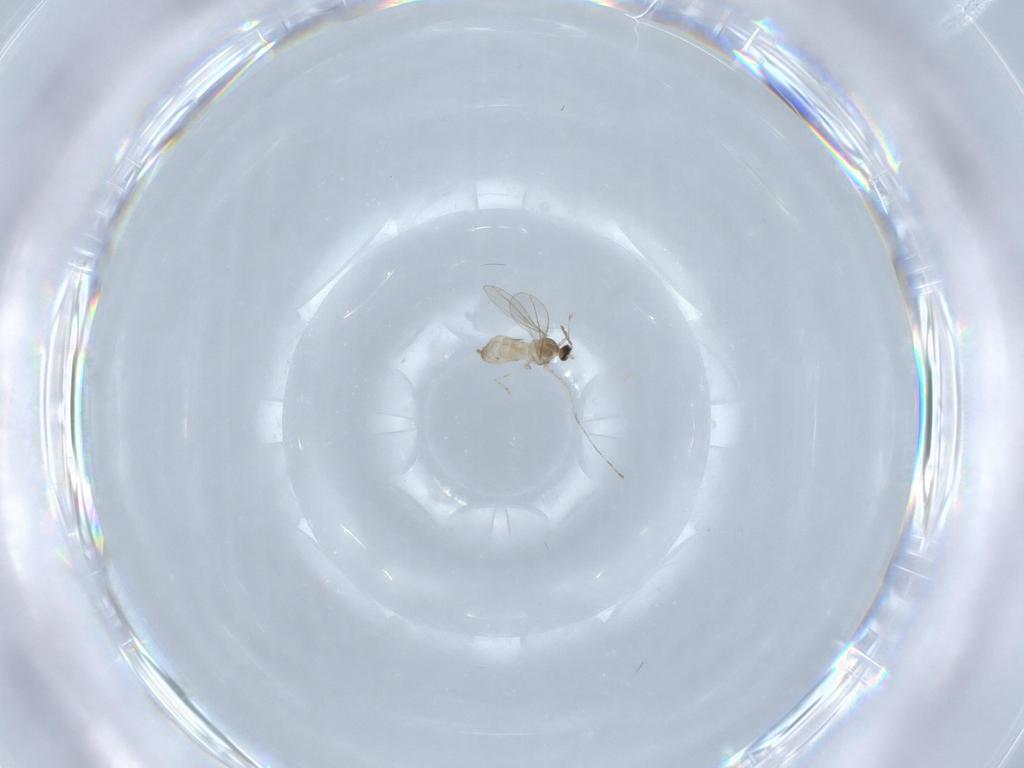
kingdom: Animalia
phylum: Arthropoda
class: Insecta
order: Diptera
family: Cecidomyiidae
